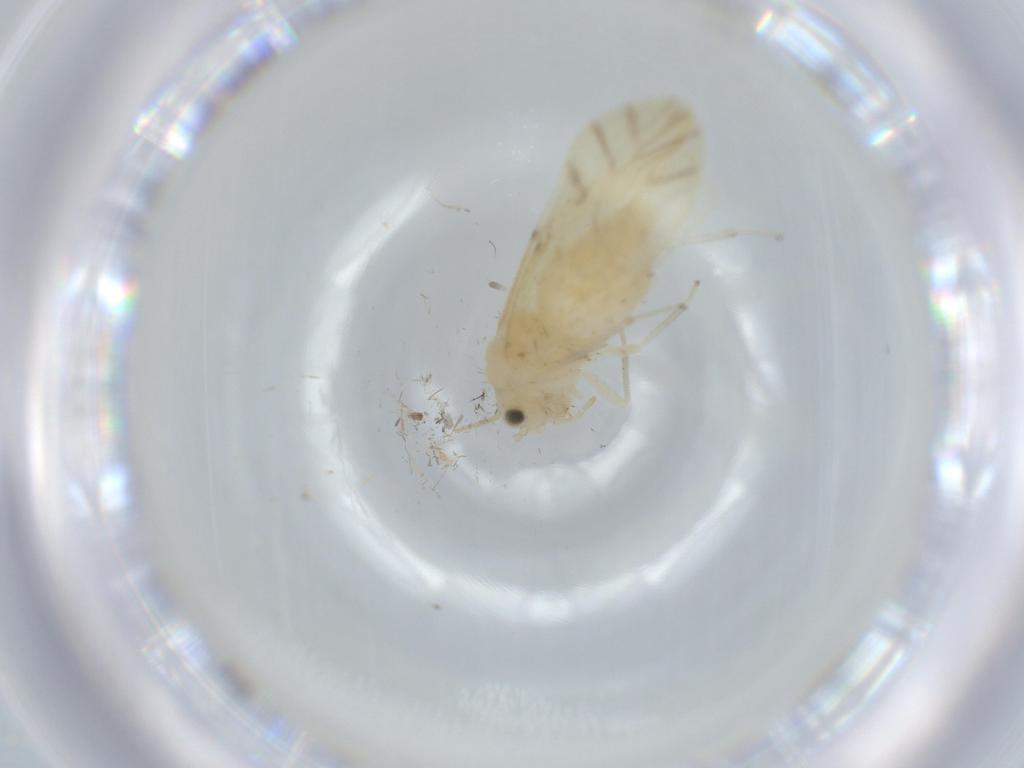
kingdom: Animalia
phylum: Arthropoda
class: Insecta
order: Psocodea
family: Caeciliusidae
